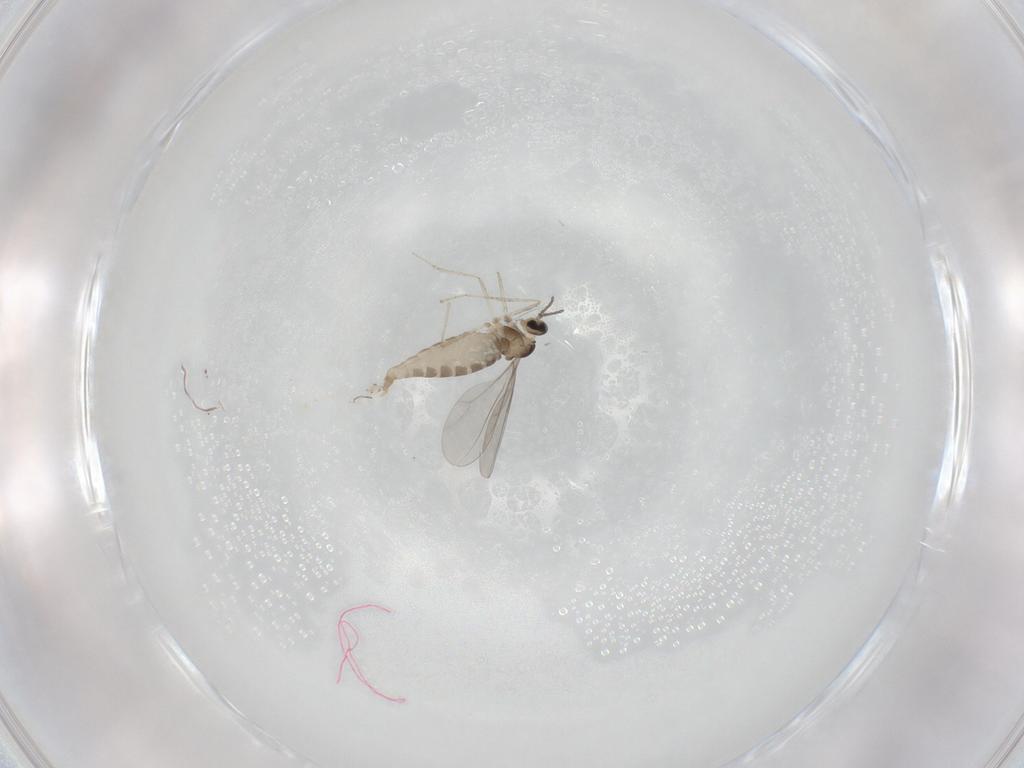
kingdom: Animalia
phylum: Arthropoda
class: Insecta
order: Diptera
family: Cecidomyiidae
